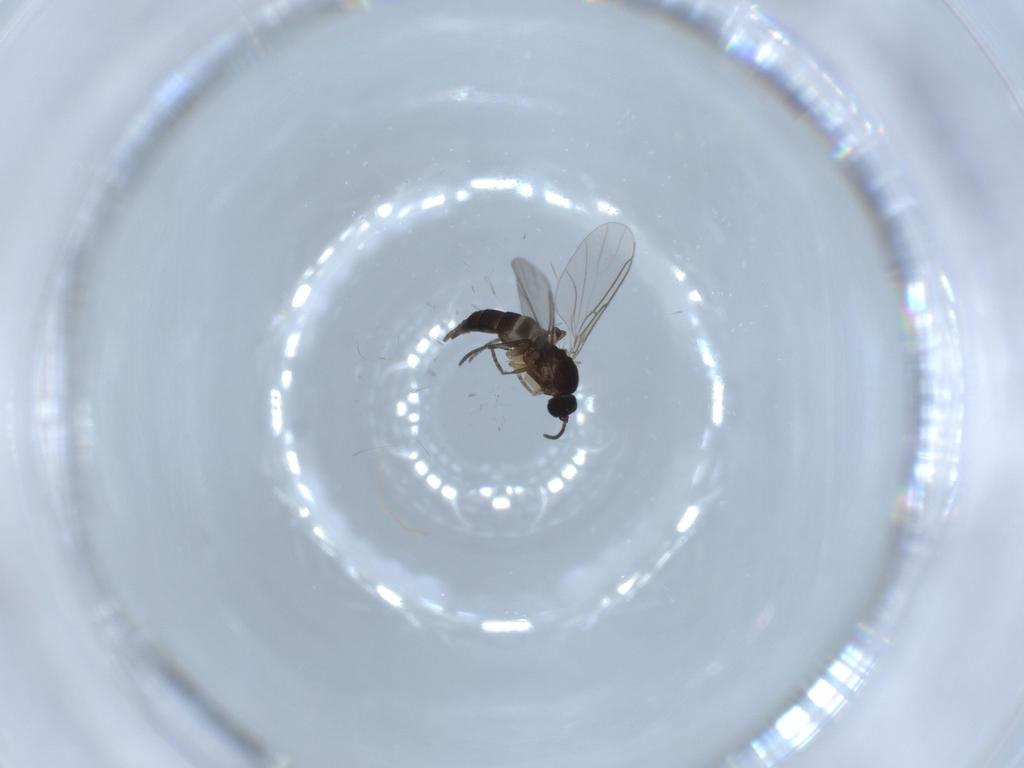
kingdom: Animalia
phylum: Arthropoda
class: Insecta
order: Diptera
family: Sciaridae
